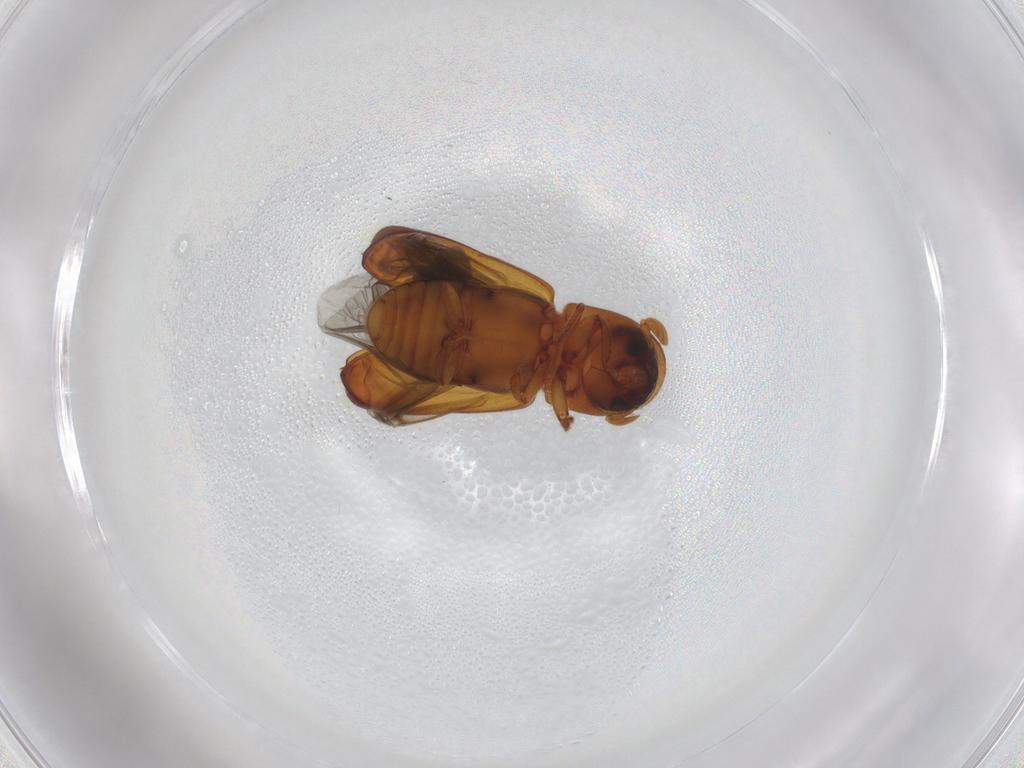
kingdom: Animalia
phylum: Arthropoda
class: Insecta
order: Coleoptera
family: Curculionidae
